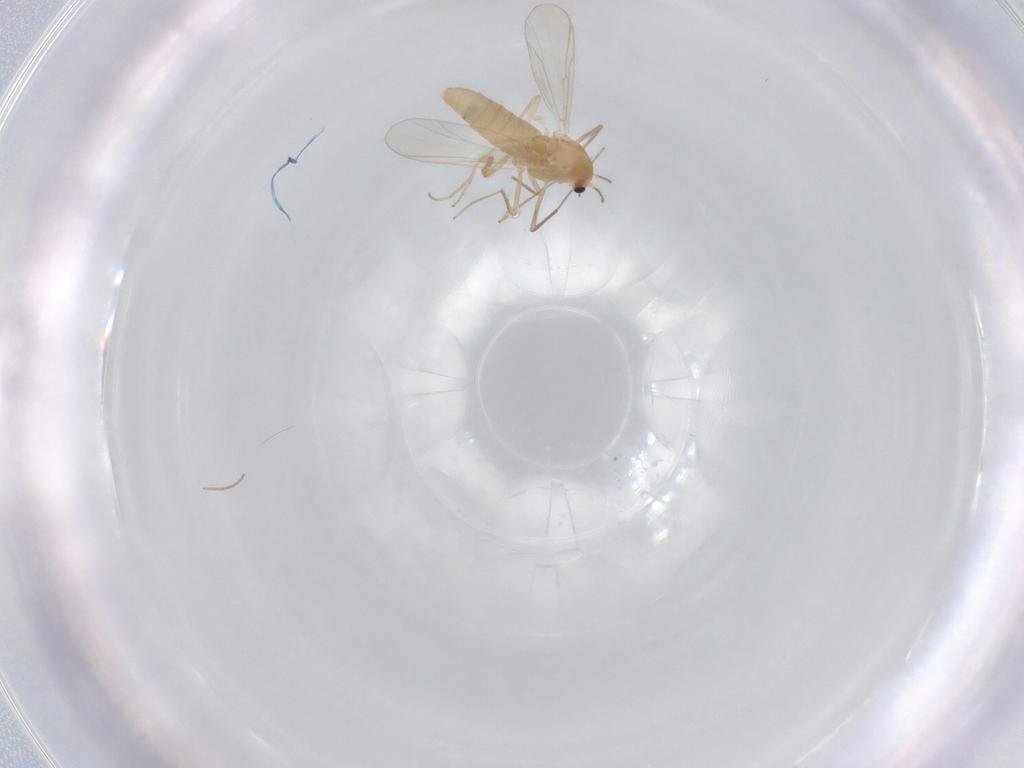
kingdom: Animalia
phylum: Arthropoda
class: Insecta
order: Diptera
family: Chironomidae
